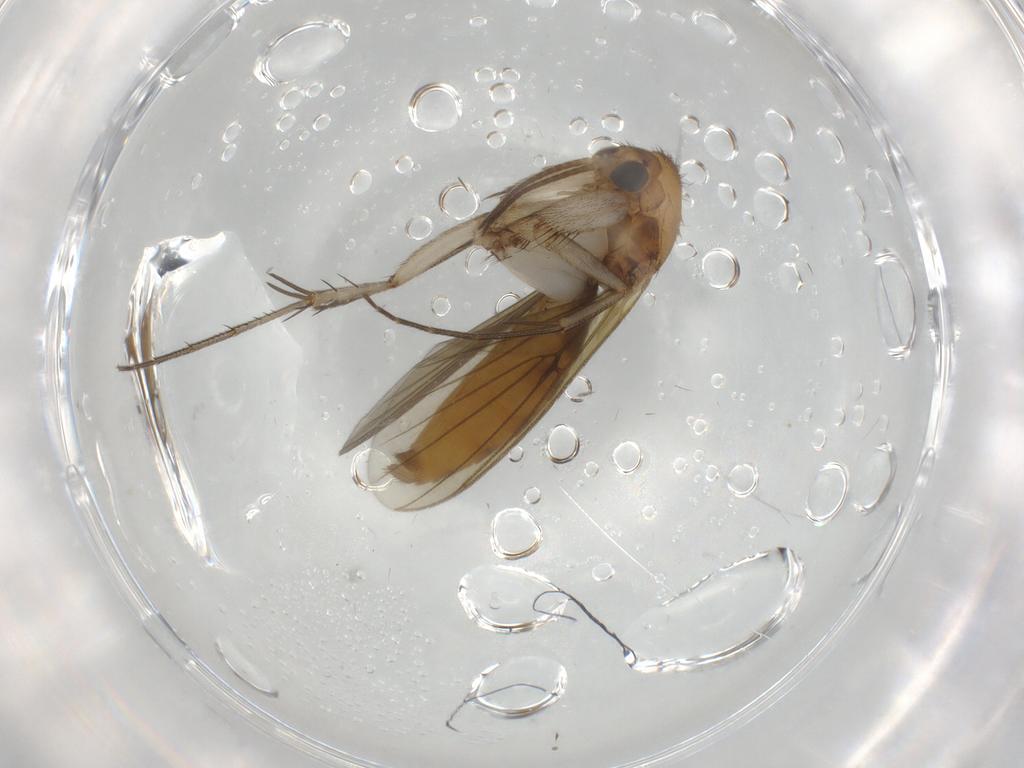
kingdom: Animalia
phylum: Arthropoda
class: Insecta
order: Diptera
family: Mycetophilidae
